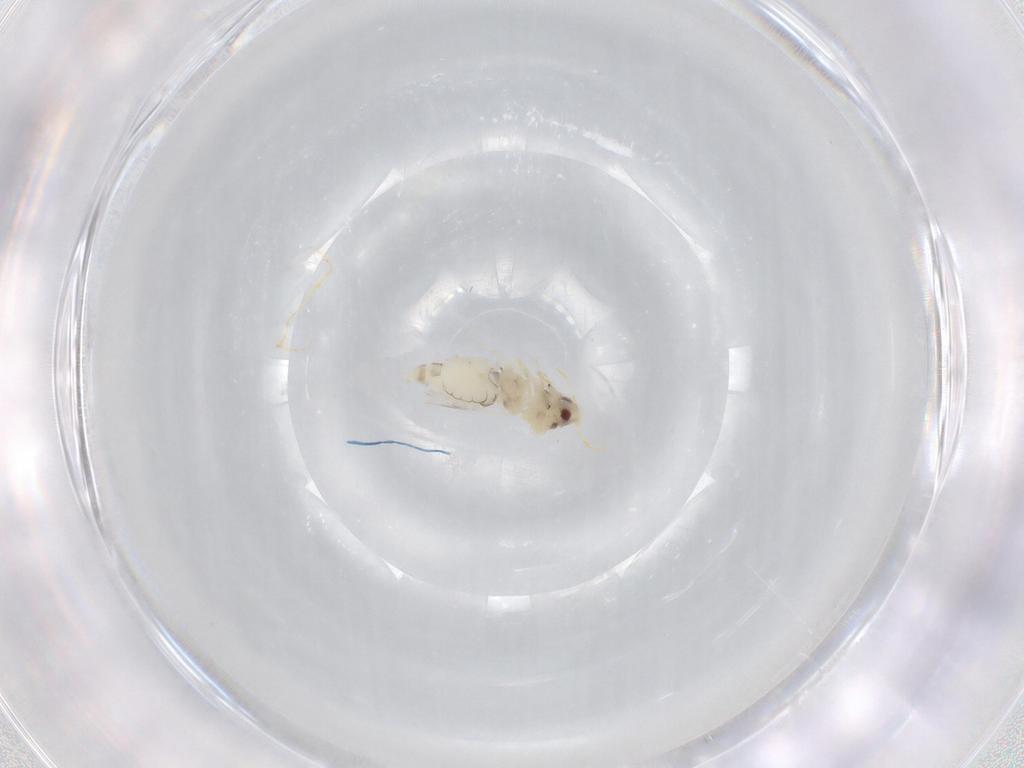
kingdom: Animalia
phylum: Arthropoda
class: Insecta
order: Hemiptera
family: Aleyrodidae
